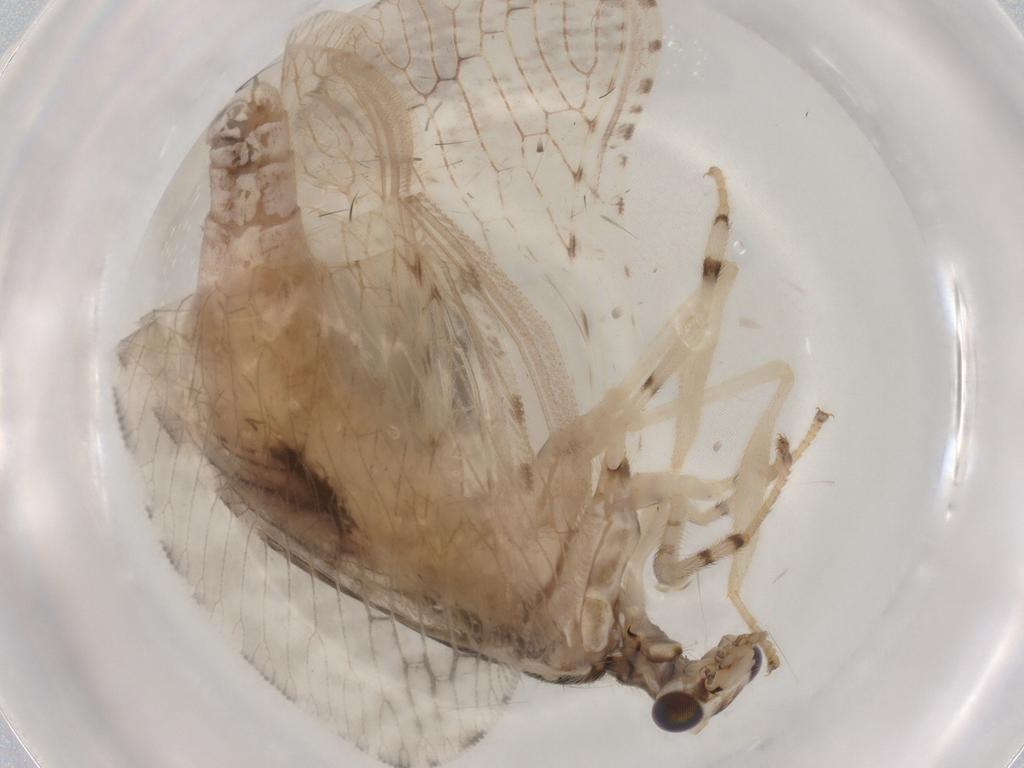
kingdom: Animalia
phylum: Arthropoda
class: Insecta
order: Neuroptera
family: Hemerobiidae
